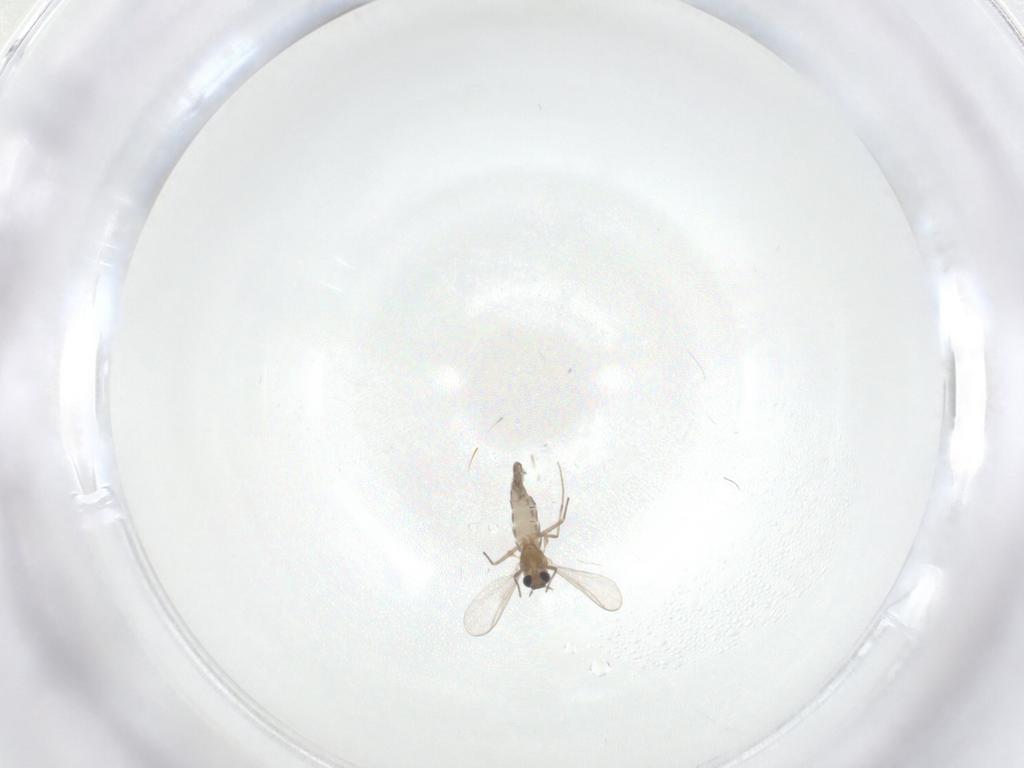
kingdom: Animalia
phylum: Arthropoda
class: Insecta
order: Diptera
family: Chironomidae
